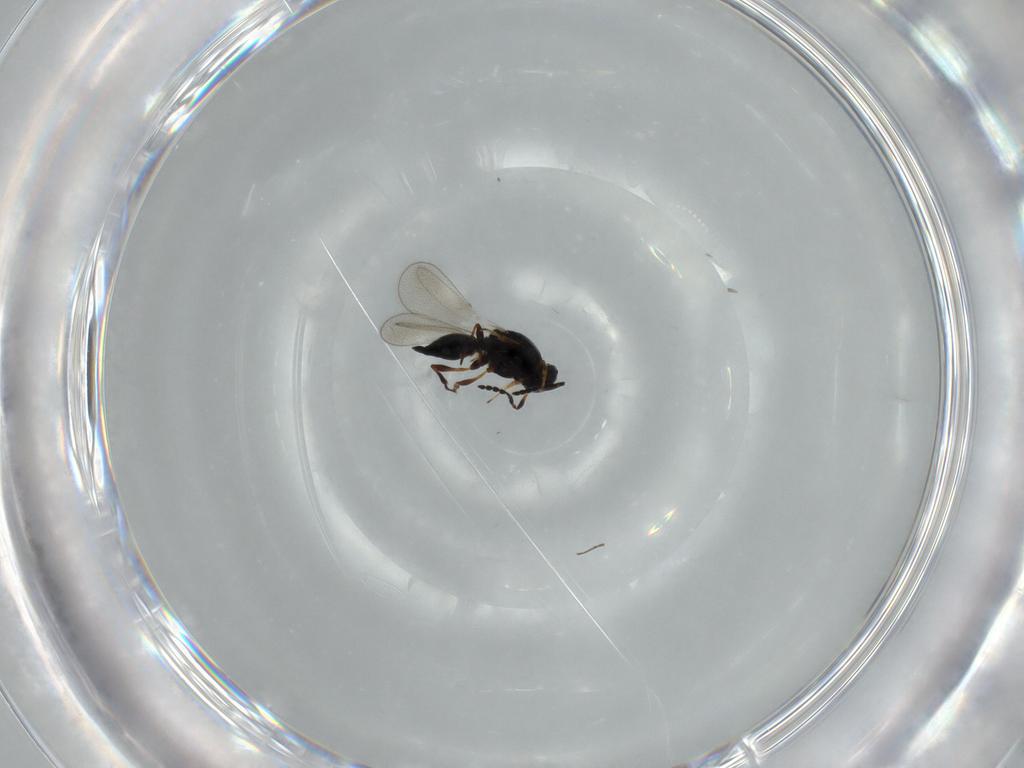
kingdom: Animalia
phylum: Arthropoda
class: Insecta
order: Hymenoptera
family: Platygastridae
